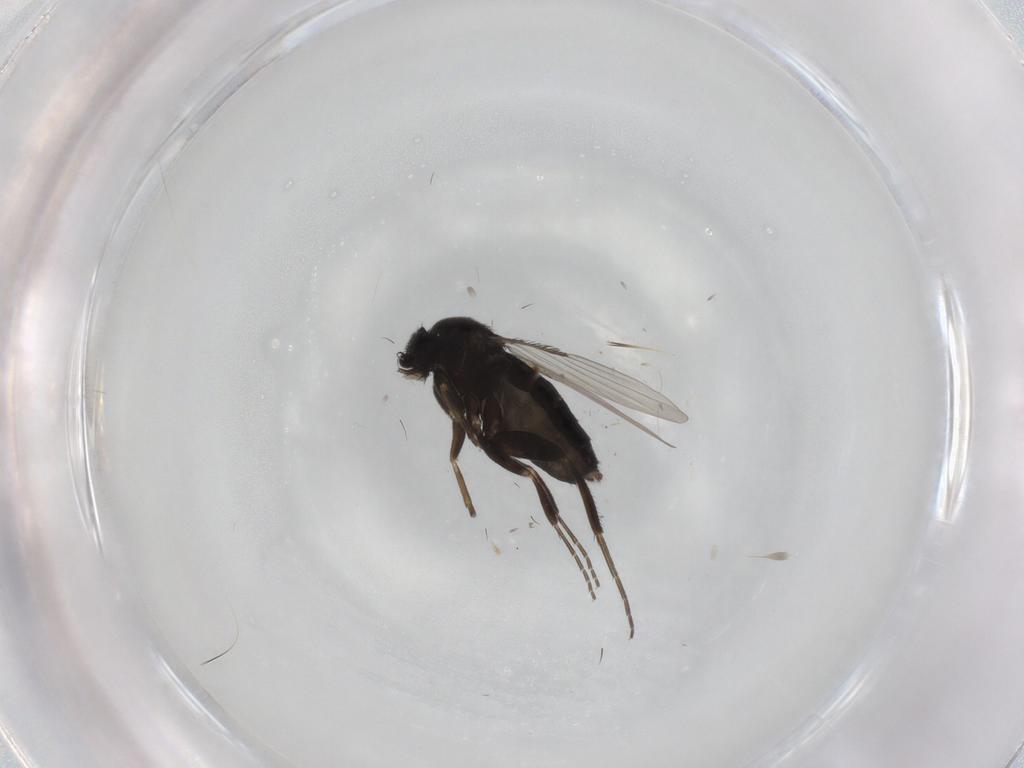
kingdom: Animalia
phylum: Arthropoda
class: Insecta
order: Diptera
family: Phoridae
